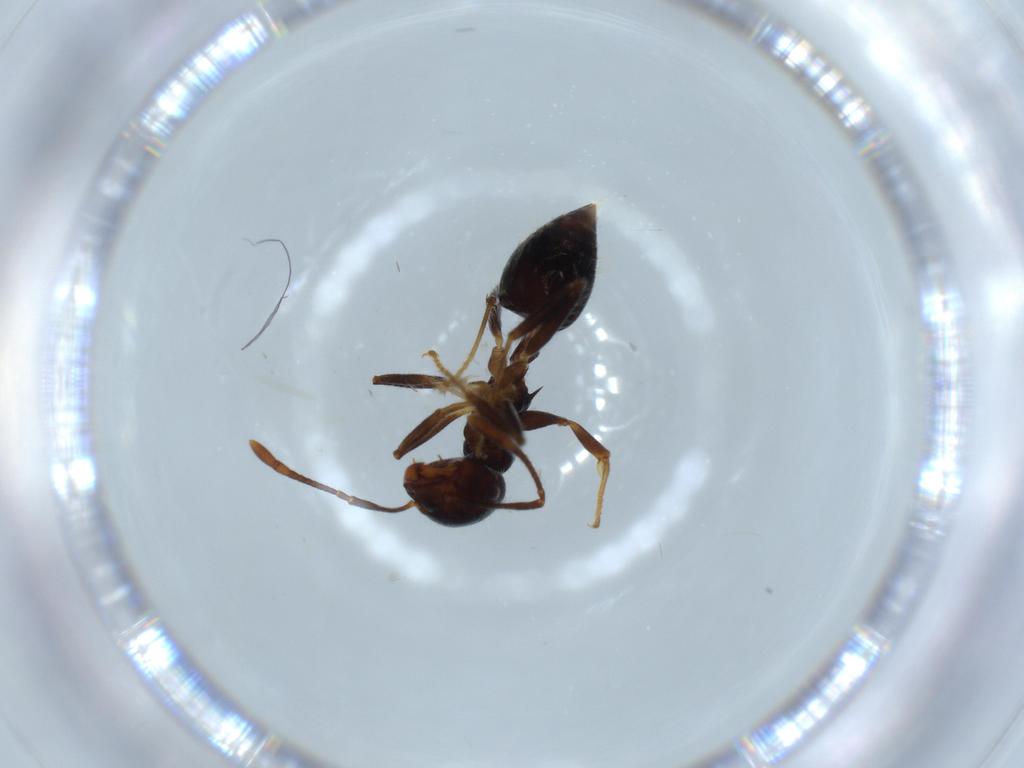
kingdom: Animalia
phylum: Arthropoda
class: Insecta
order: Hymenoptera
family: Formicidae
